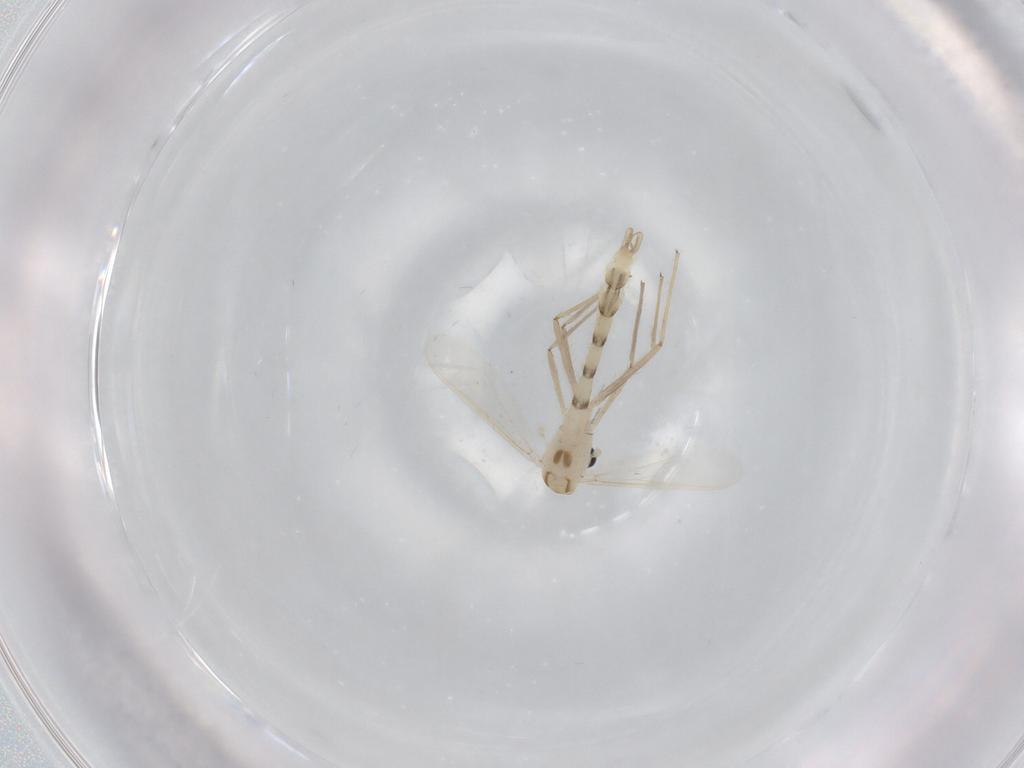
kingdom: Animalia
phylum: Arthropoda
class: Insecta
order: Diptera
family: Chironomidae
